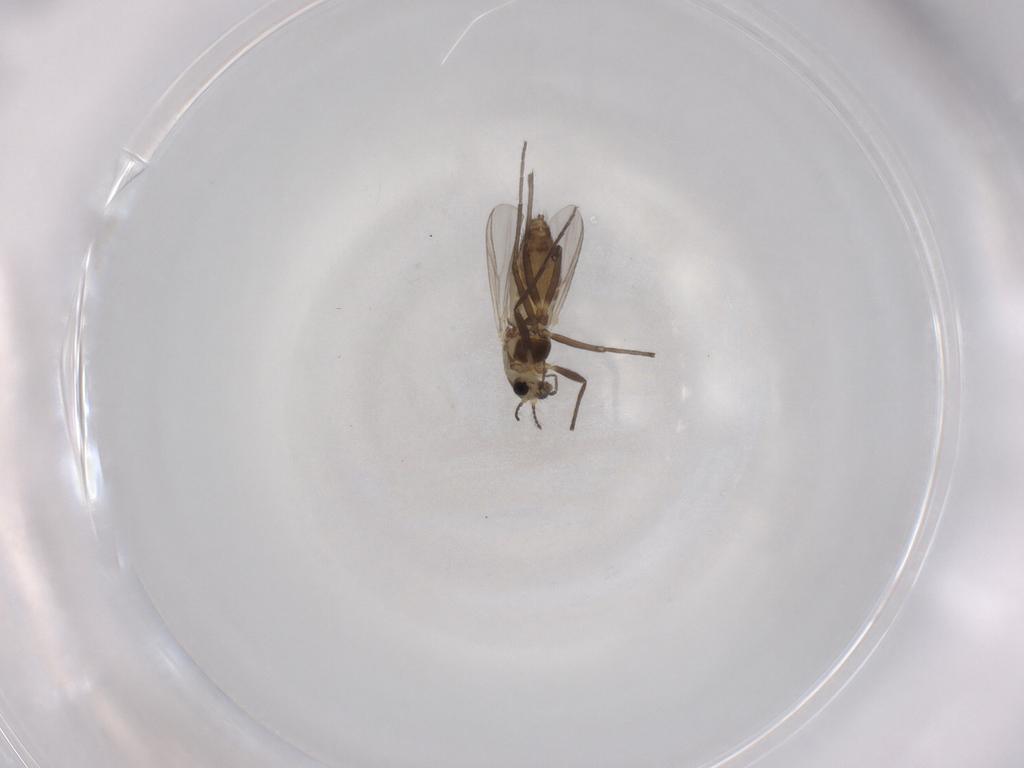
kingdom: Animalia
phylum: Arthropoda
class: Insecta
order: Diptera
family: Chironomidae
